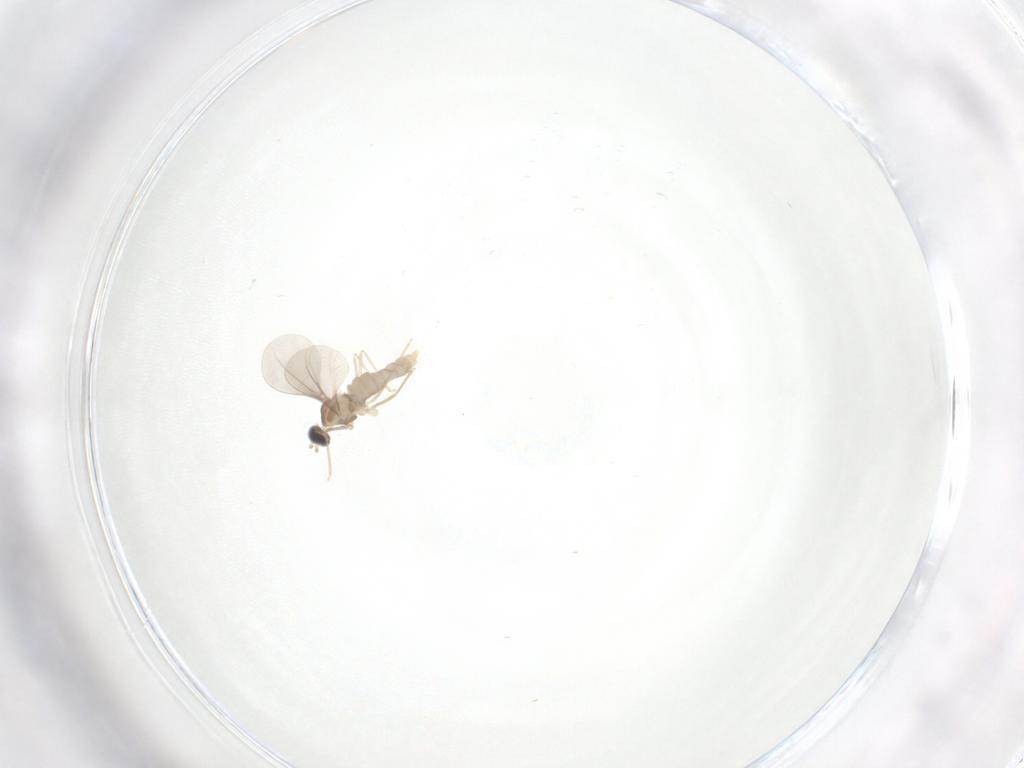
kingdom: Animalia
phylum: Arthropoda
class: Insecta
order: Diptera
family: Cecidomyiidae
